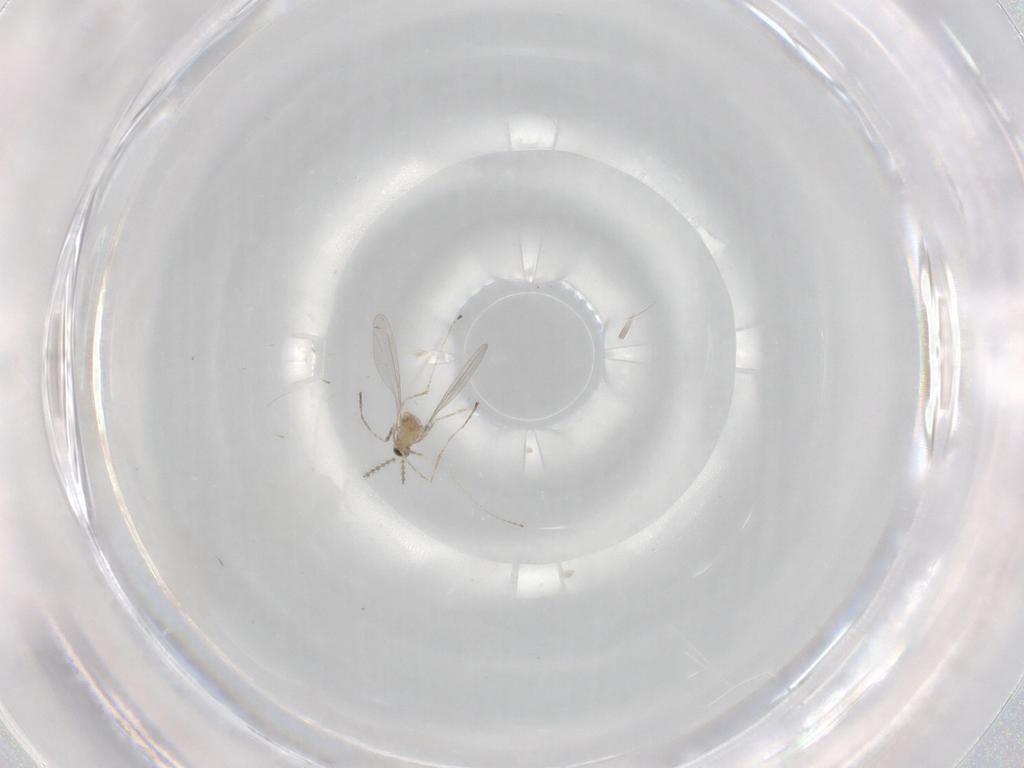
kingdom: Animalia
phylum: Arthropoda
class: Insecta
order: Diptera
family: Cecidomyiidae
